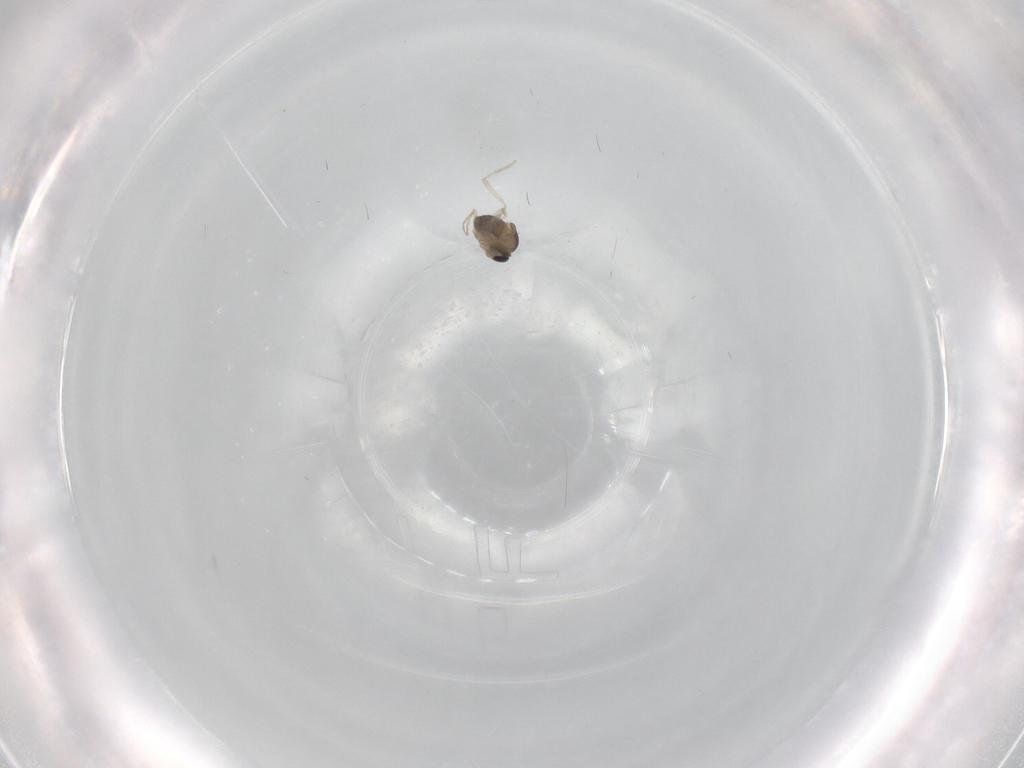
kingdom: Animalia
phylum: Arthropoda
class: Insecta
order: Diptera
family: Cecidomyiidae
